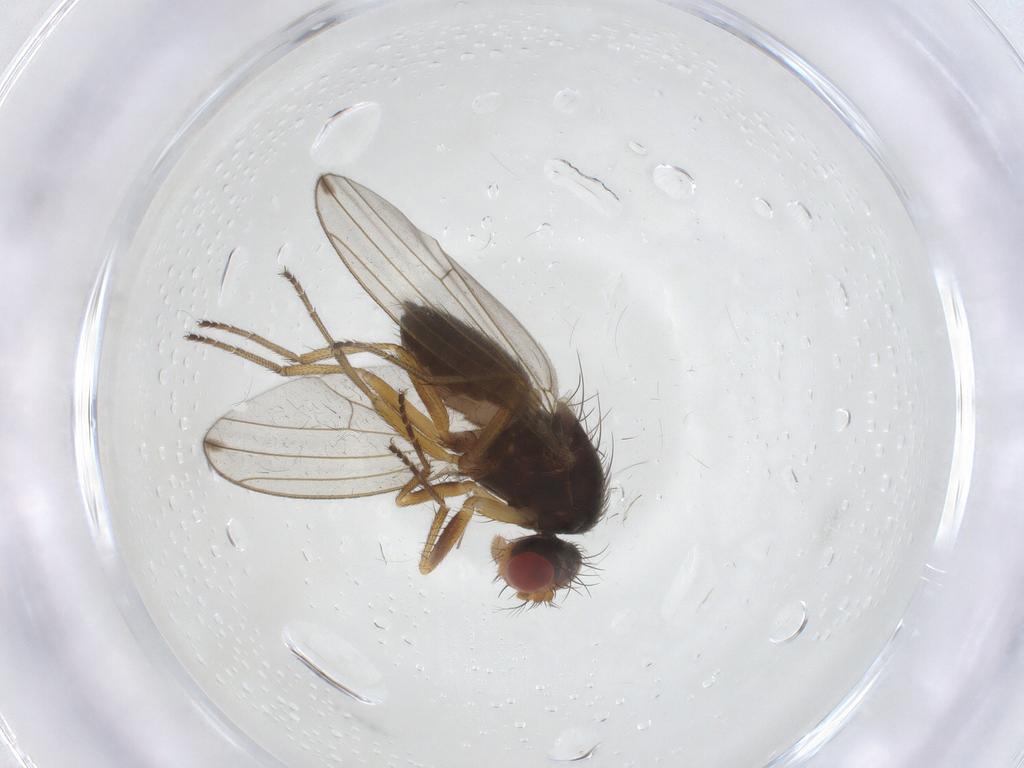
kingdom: Animalia
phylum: Arthropoda
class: Insecta
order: Diptera
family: Drosophilidae
